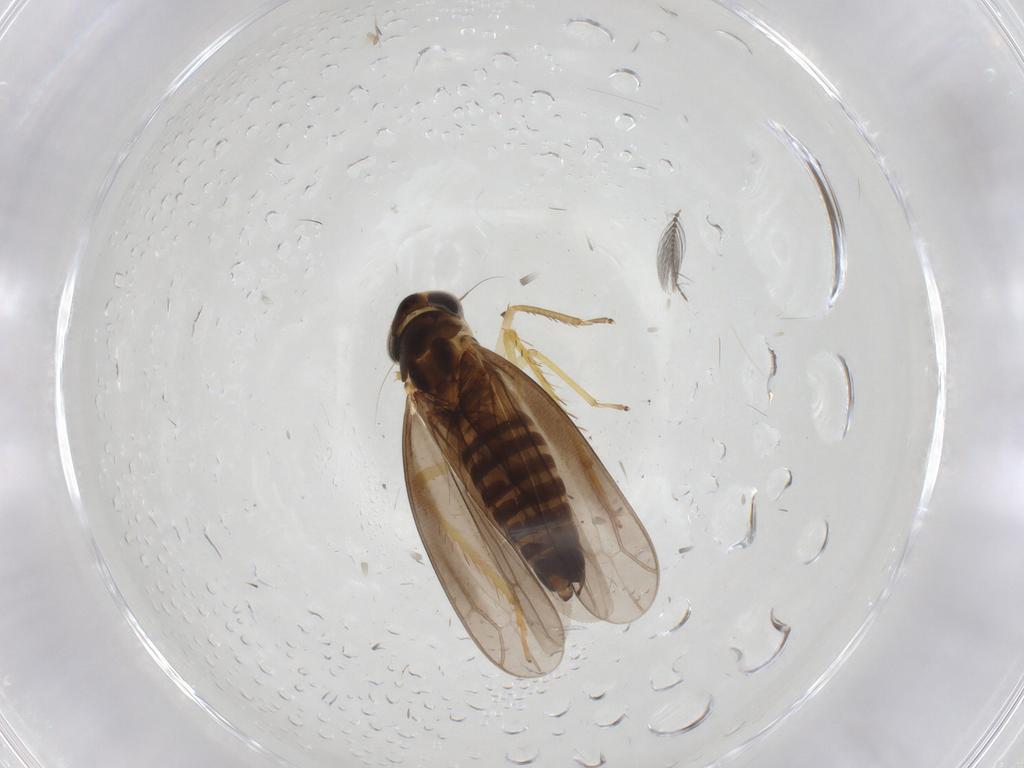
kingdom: Animalia
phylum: Arthropoda
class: Insecta
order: Hemiptera
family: Cicadellidae
